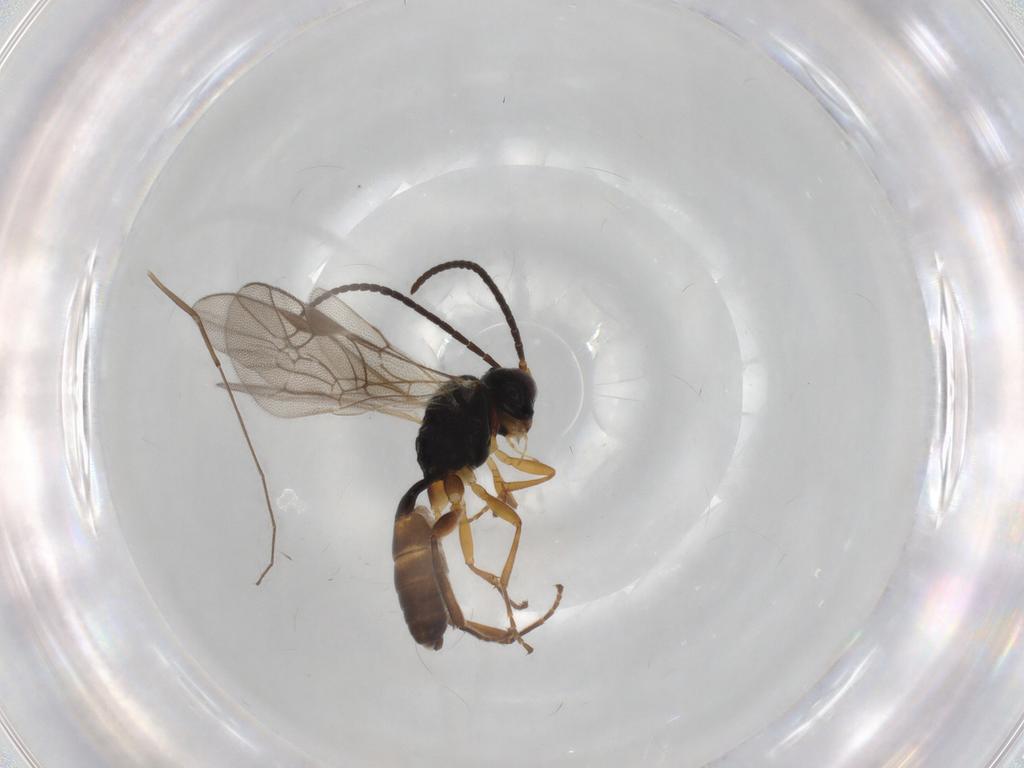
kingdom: Animalia
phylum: Arthropoda
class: Insecta
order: Hymenoptera
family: Ichneumonidae
